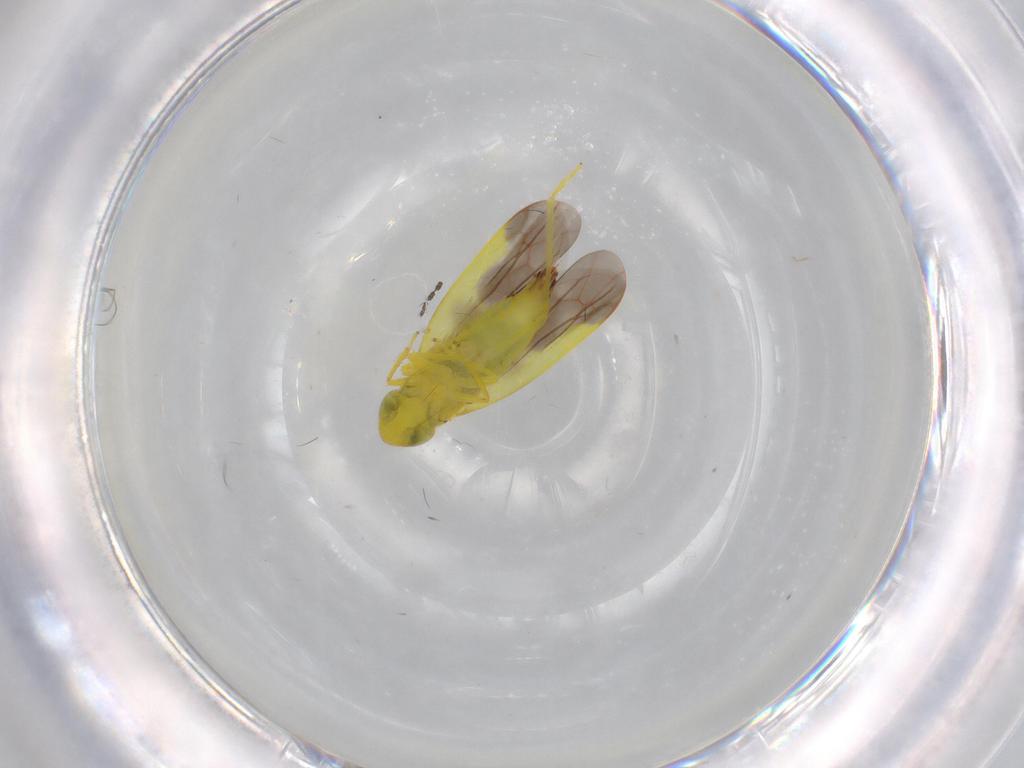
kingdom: Animalia
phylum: Arthropoda
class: Insecta
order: Hemiptera
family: Cicadellidae
